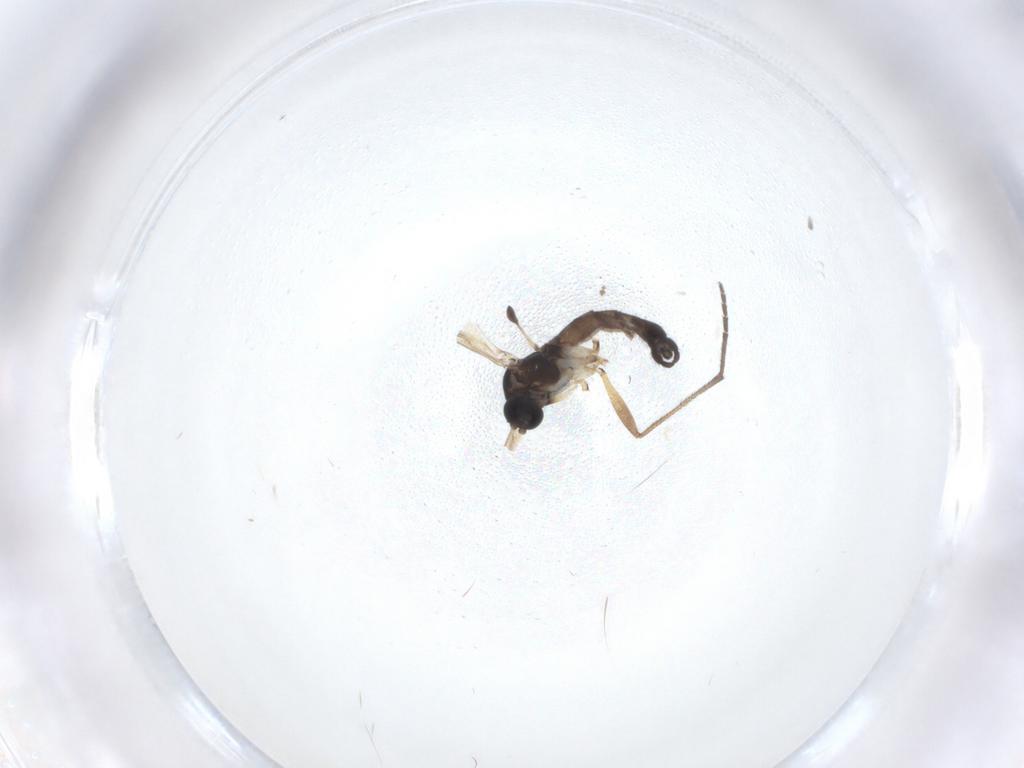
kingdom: Animalia
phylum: Arthropoda
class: Insecta
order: Diptera
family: Sciaridae
